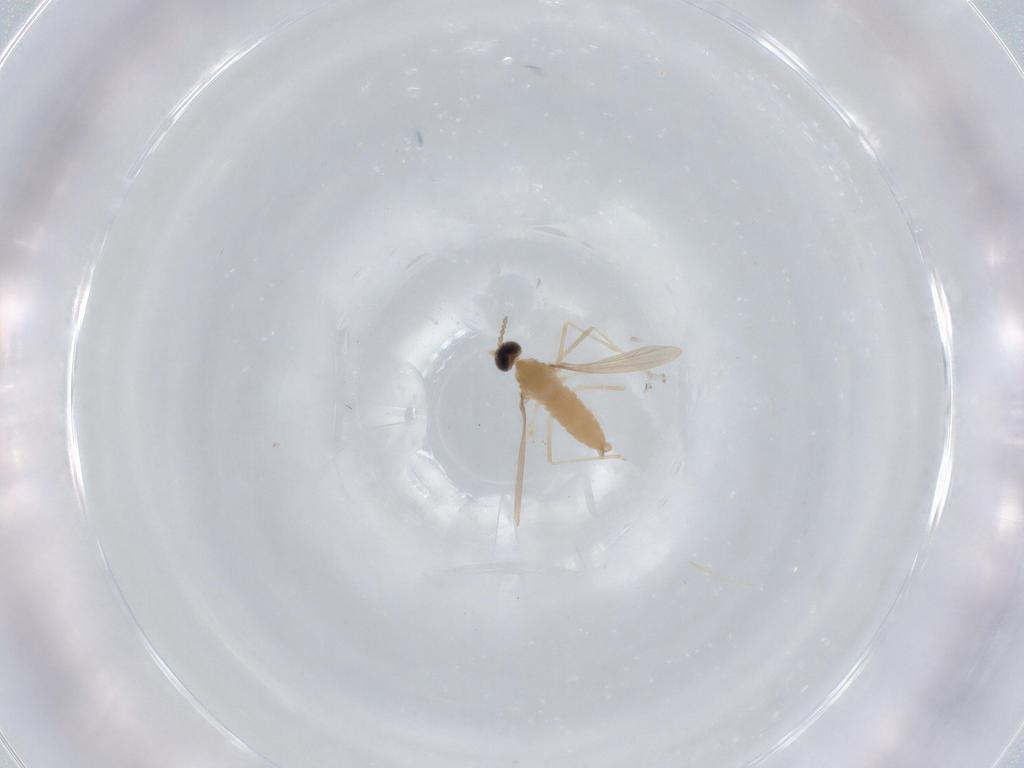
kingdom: Animalia
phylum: Arthropoda
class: Insecta
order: Diptera
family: Cecidomyiidae
